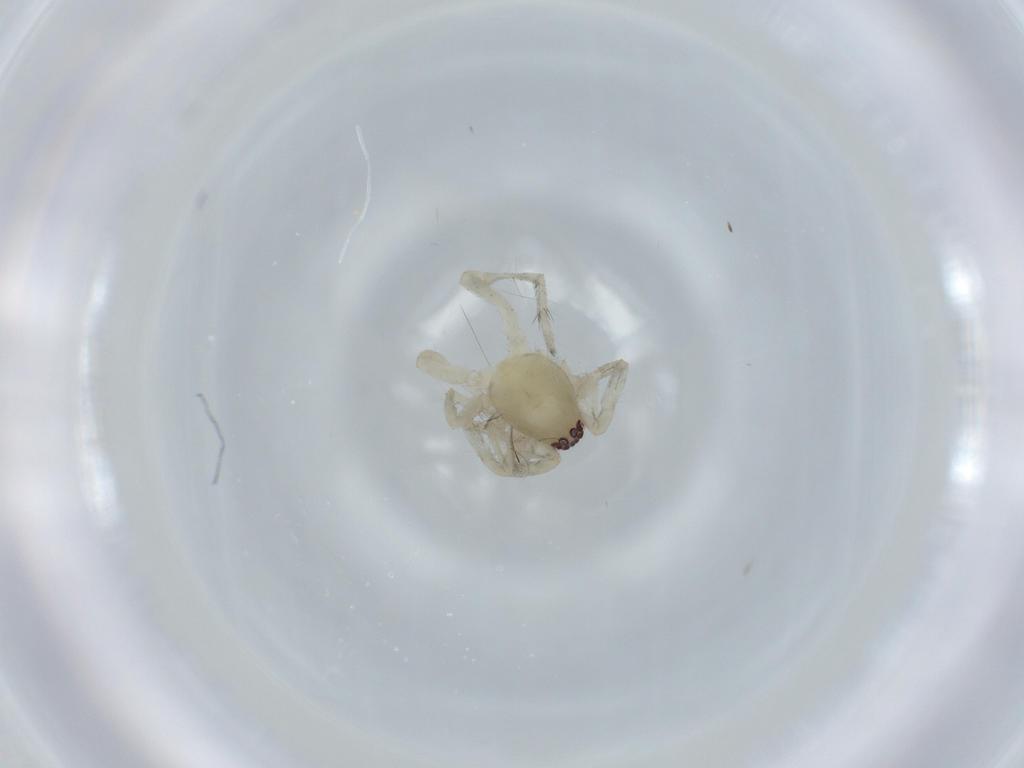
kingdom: Animalia
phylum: Arthropoda
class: Arachnida
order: Araneae
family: Anyphaenidae
